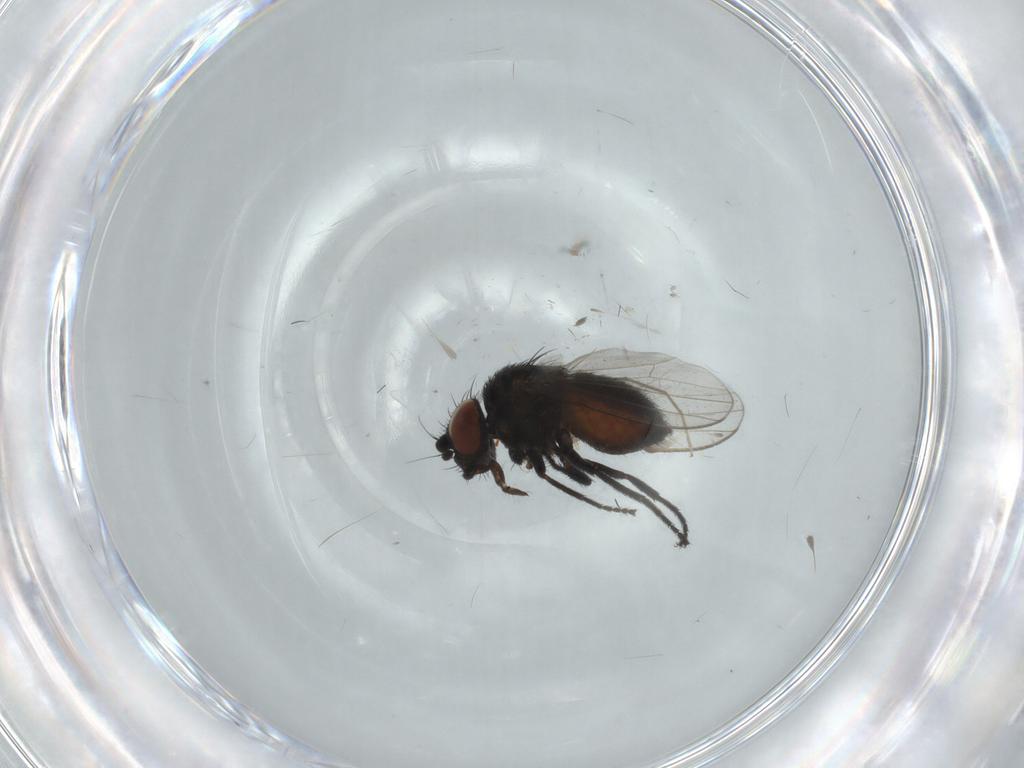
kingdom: Animalia
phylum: Arthropoda
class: Insecta
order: Diptera
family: Milichiidae
